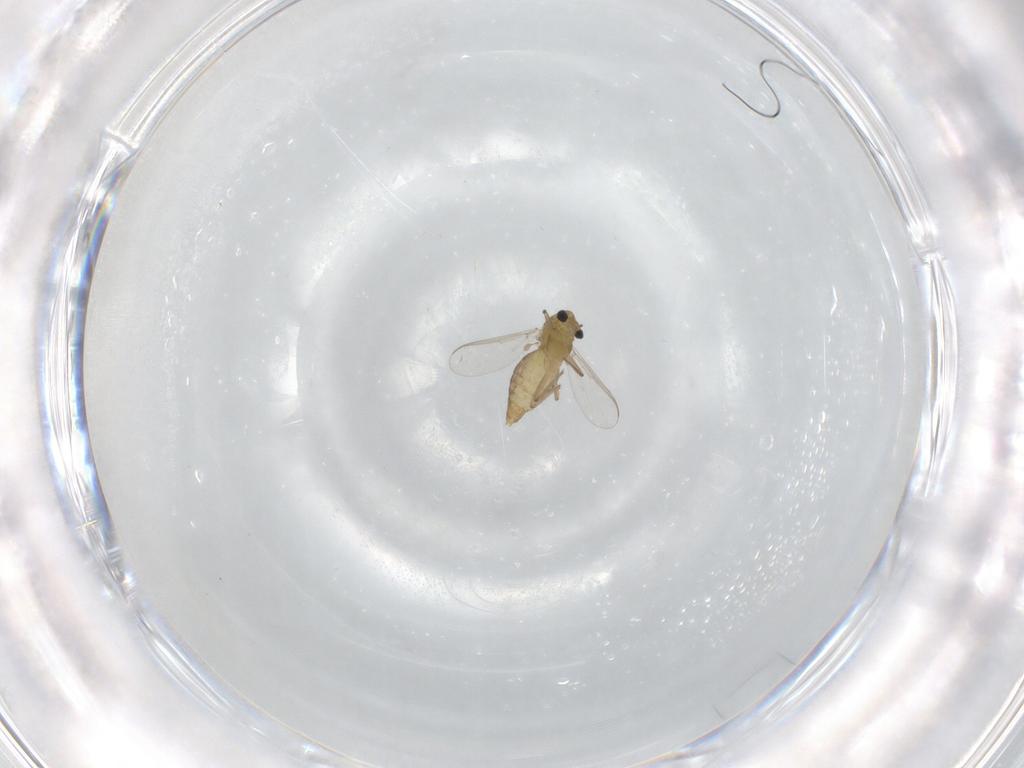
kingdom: Animalia
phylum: Arthropoda
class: Insecta
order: Diptera
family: Chironomidae
